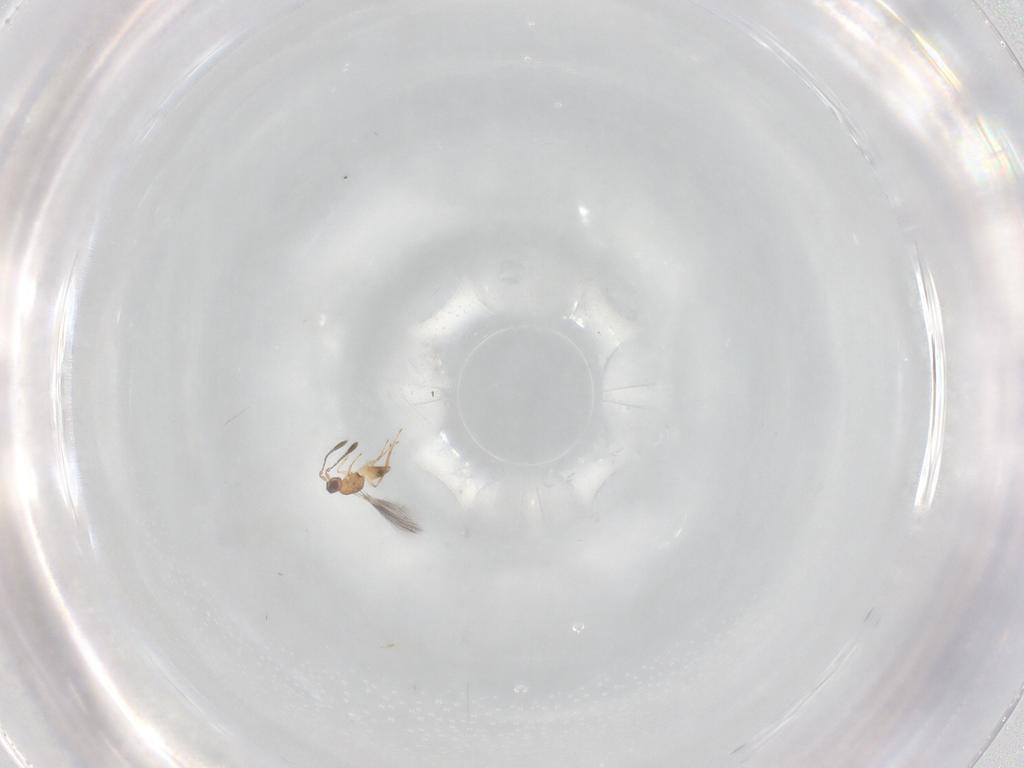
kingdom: Animalia
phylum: Arthropoda
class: Insecta
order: Hymenoptera
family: Mymaridae
